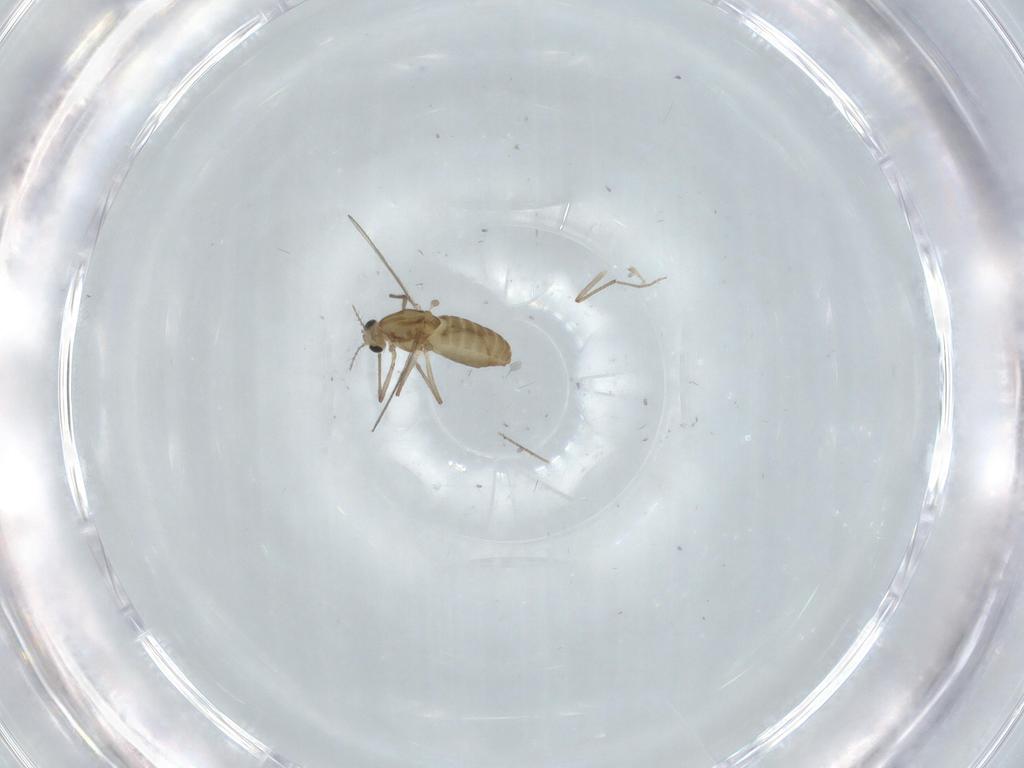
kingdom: Animalia
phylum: Arthropoda
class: Insecta
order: Diptera
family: Chironomidae
